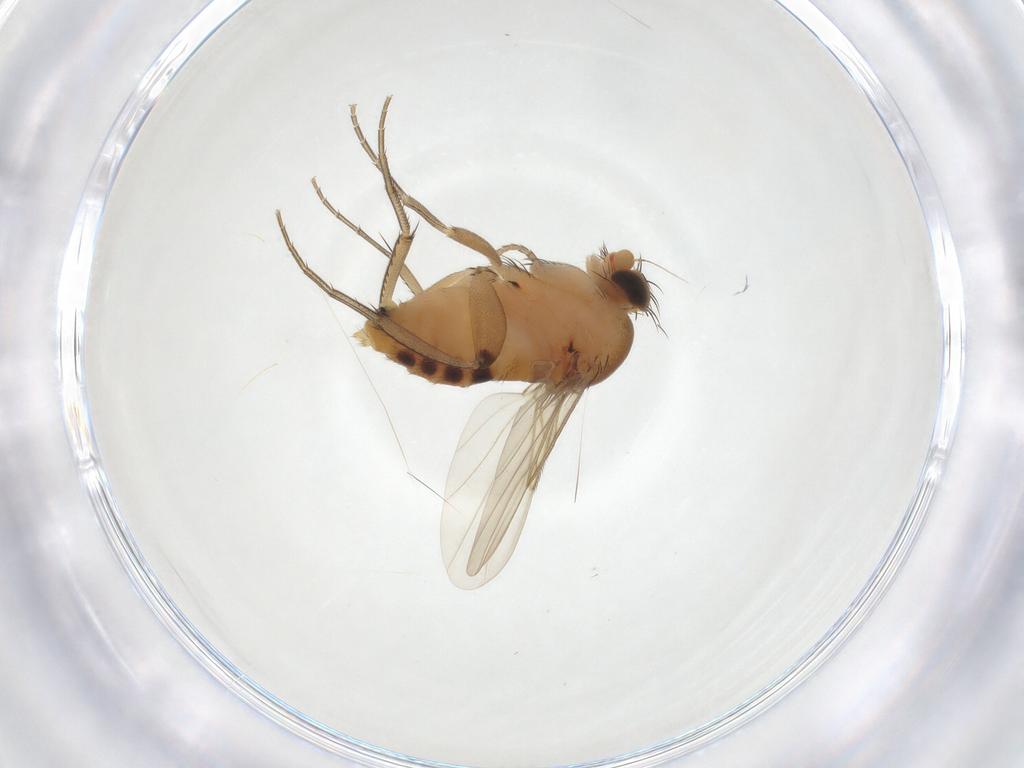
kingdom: Animalia
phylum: Arthropoda
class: Insecta
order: Diptera
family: Phoridae
